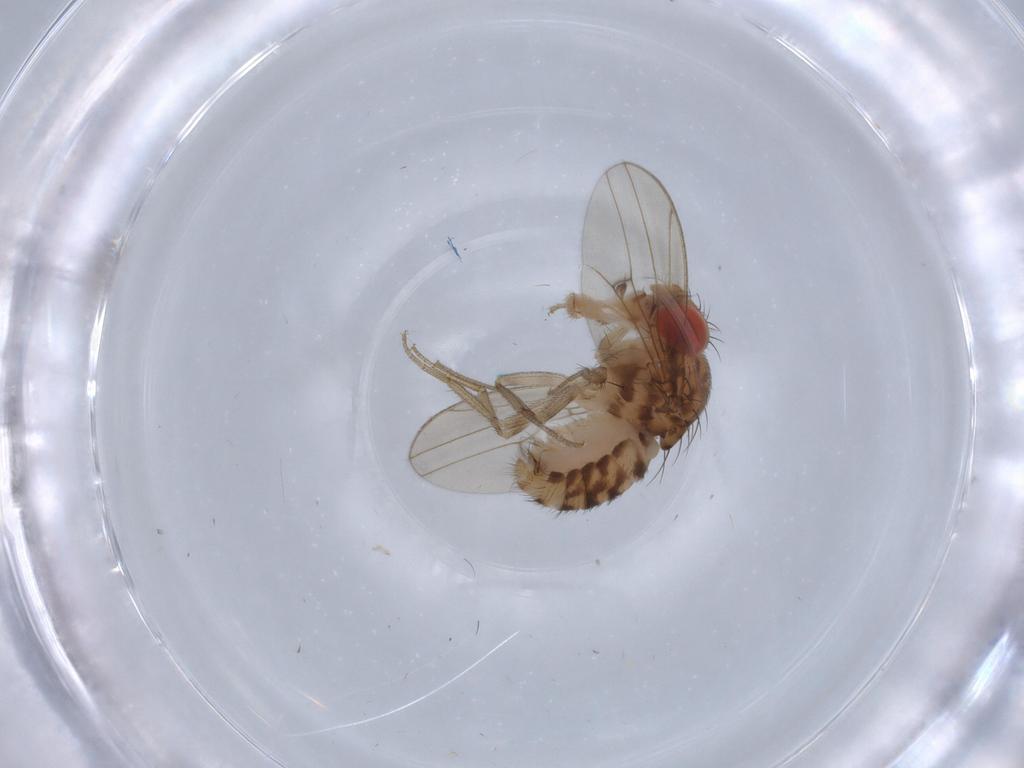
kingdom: Animalia
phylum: Arthropoda
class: Insecta
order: Diptera
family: Drosophilidae
